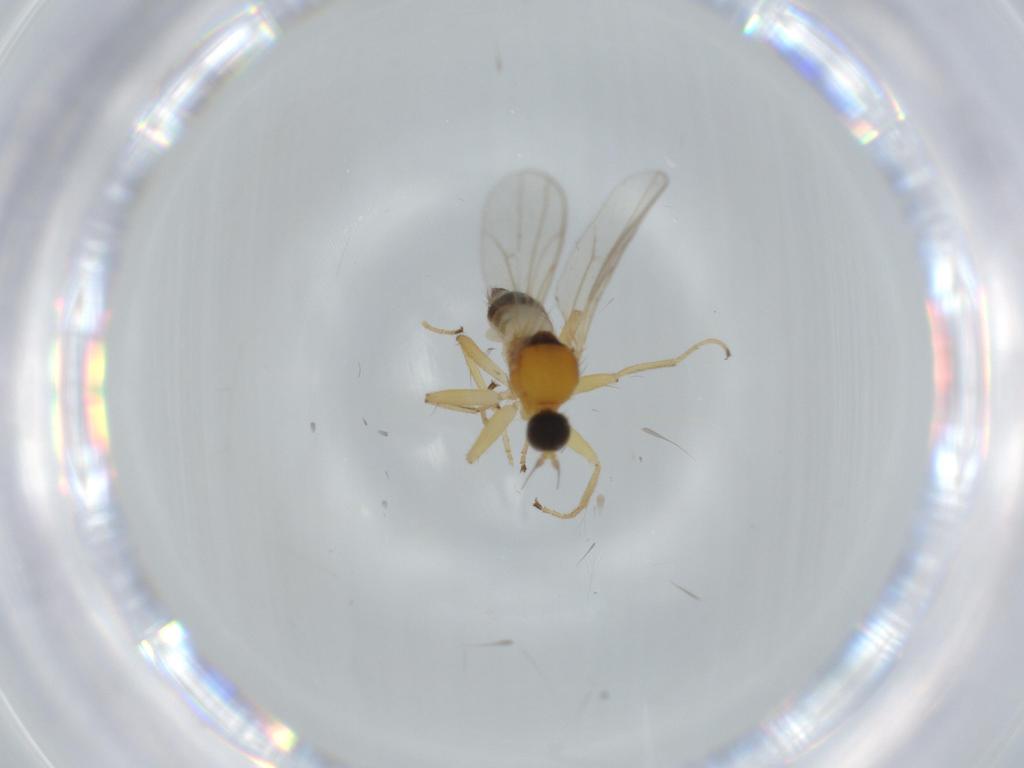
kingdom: Animalia
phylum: Arthropoda
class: Insecta
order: Diptera
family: Hybotidae
